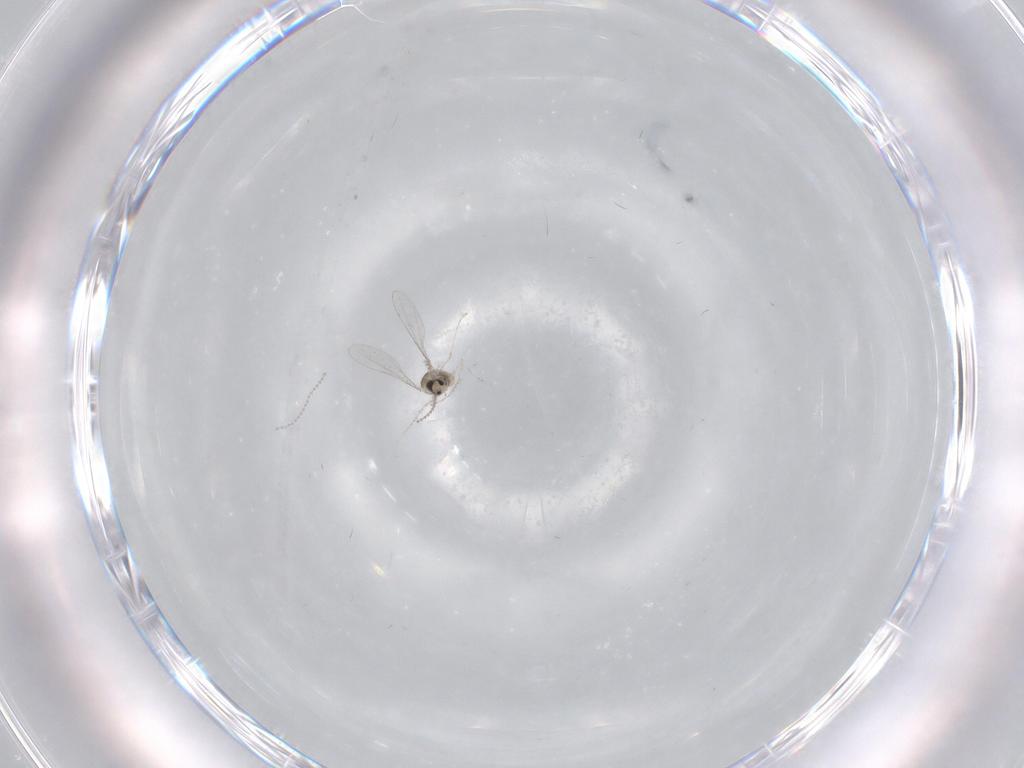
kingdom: Animalia
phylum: Arthropoda
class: Insecta
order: Diptera
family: Cecidomyiidae
